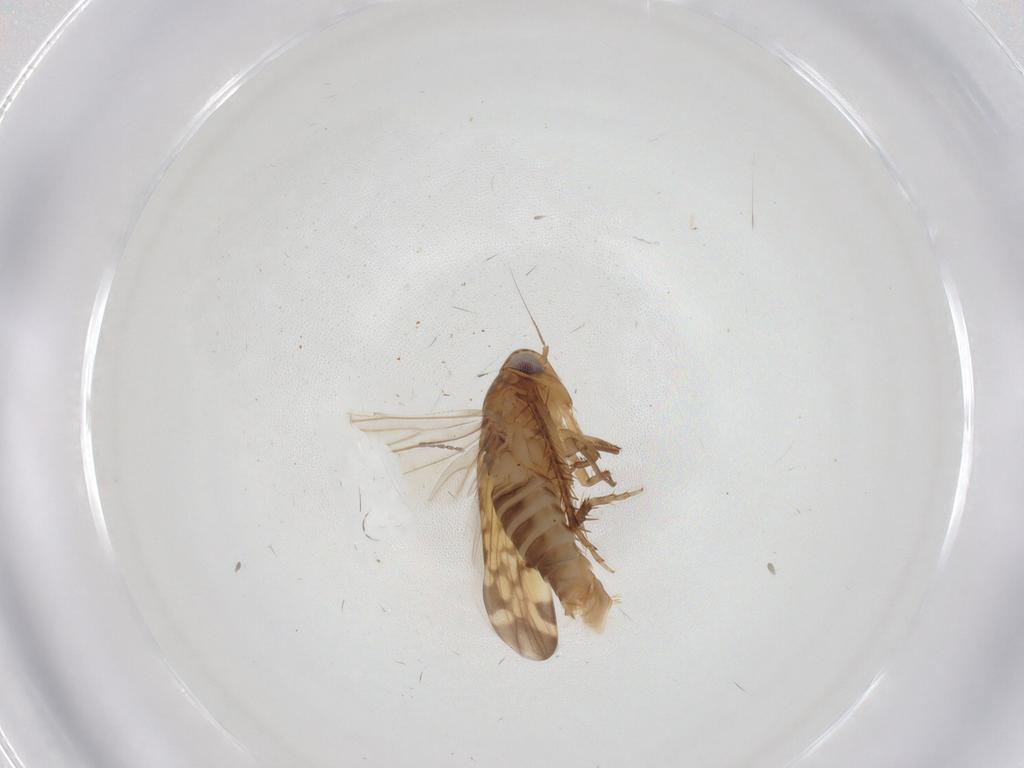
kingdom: Animalia
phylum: Arthropoda
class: Insecta
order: Hemiptera
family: Cicadellidae
